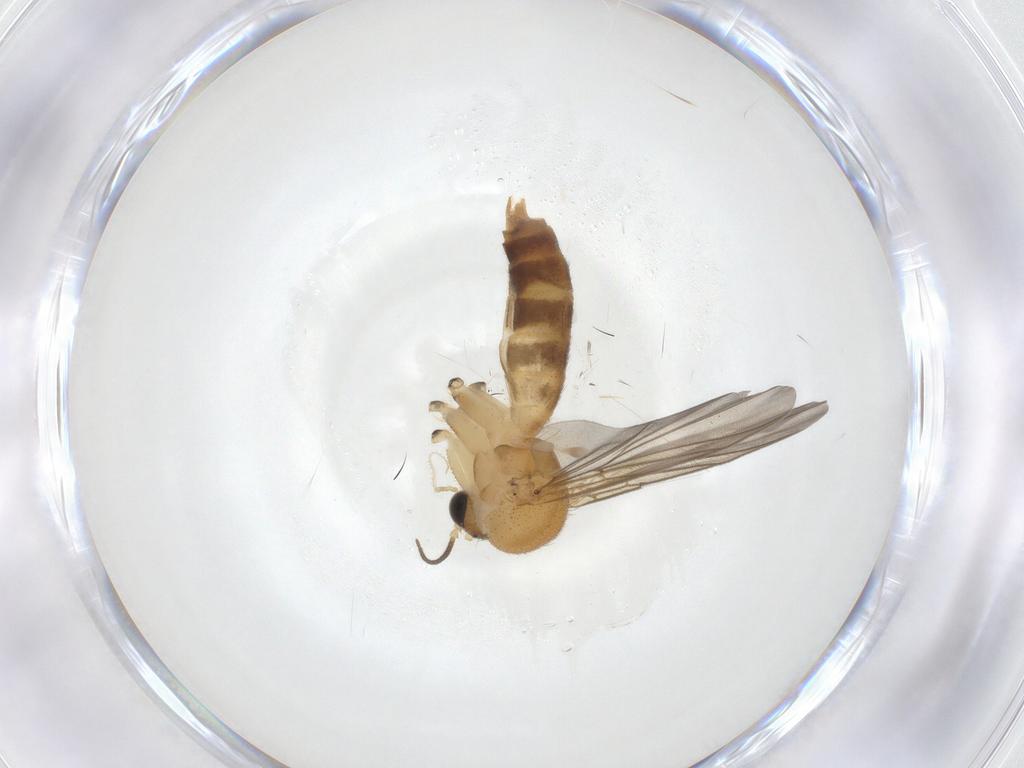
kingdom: Animalia
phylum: Arthropoda
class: Insecta
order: Diptera
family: Mycetophilidae
